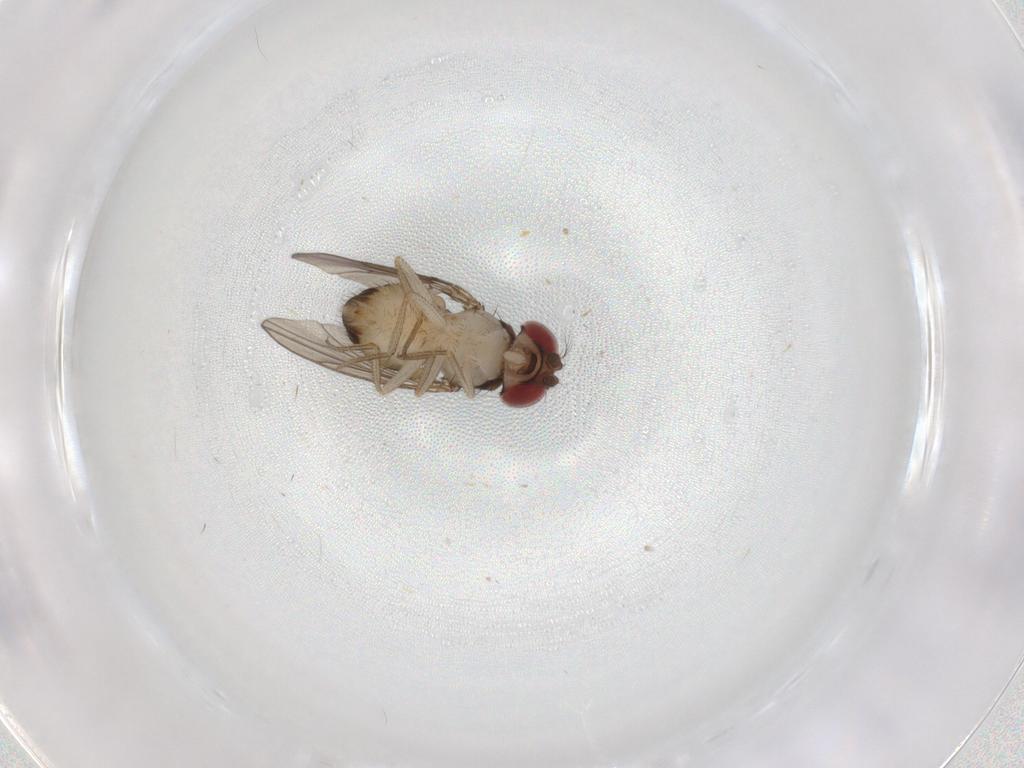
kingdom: Animalia
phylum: Arthropoda
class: Insecta
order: Diptera
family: Drosophilidae
